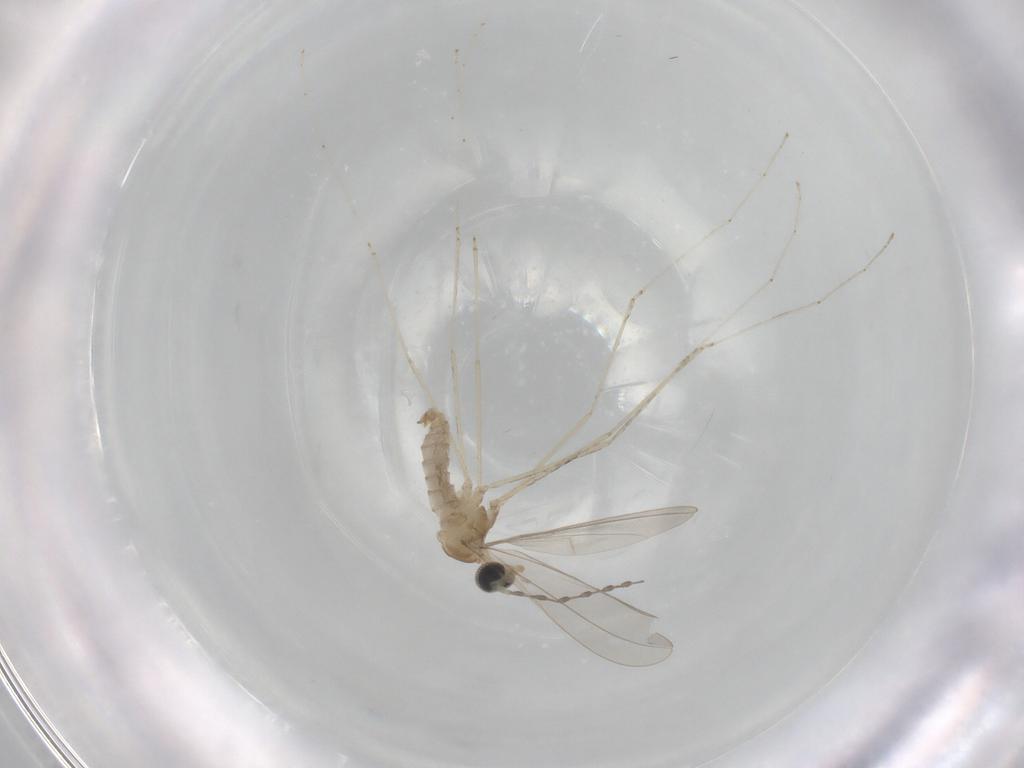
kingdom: Animalia
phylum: Arthropoda
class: Insecta
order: Diptera
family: Cecidomyiidae
